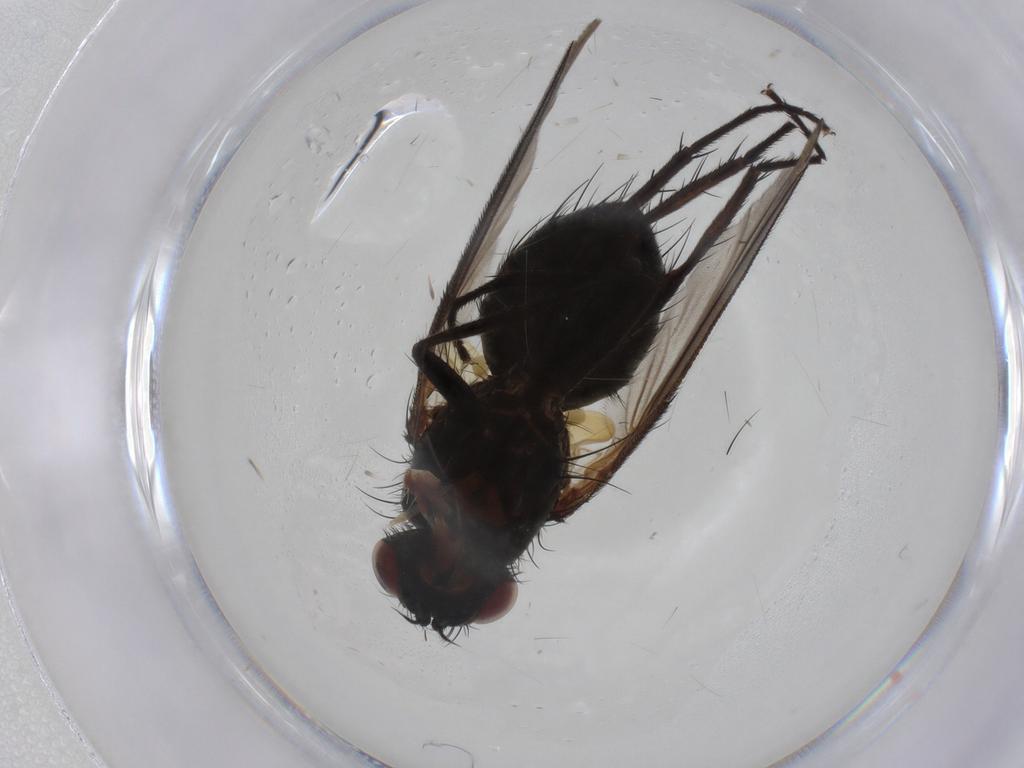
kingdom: Animalia
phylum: Arthropoda
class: Insecta
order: Diptera
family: Tachinidae
